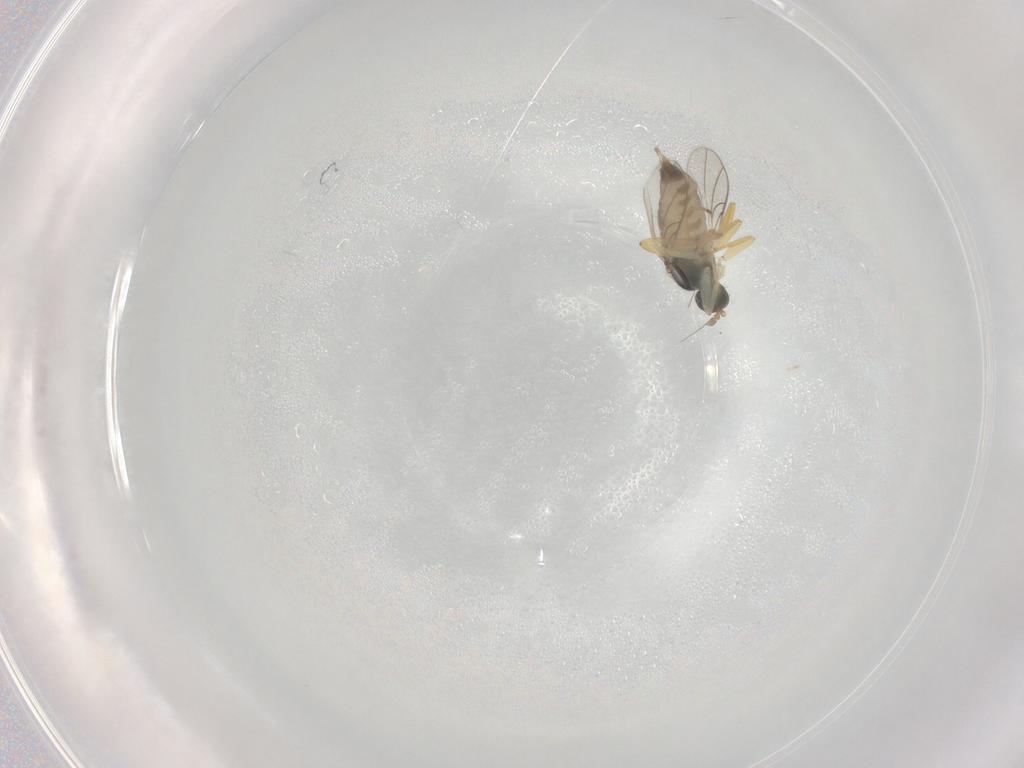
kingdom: Animalia
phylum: Arthropoda
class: Insecta
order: Diptera
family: Hybotidae
